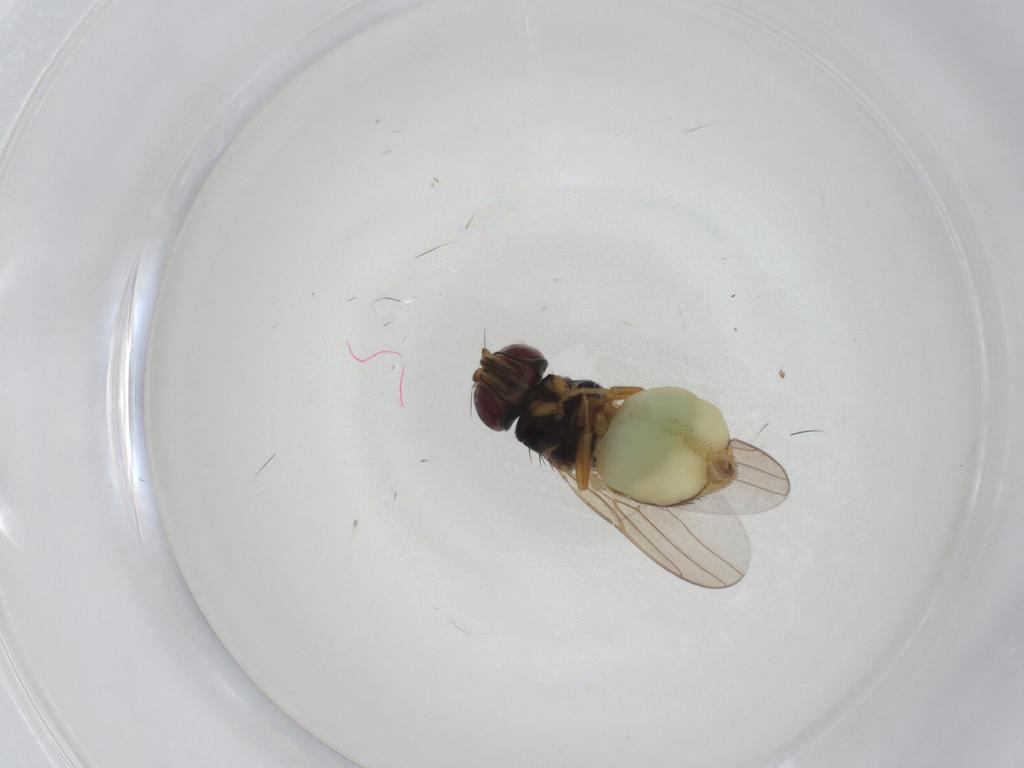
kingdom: Animalia
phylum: Arthropoda
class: Insecta
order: Diptera
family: Chloropidae
